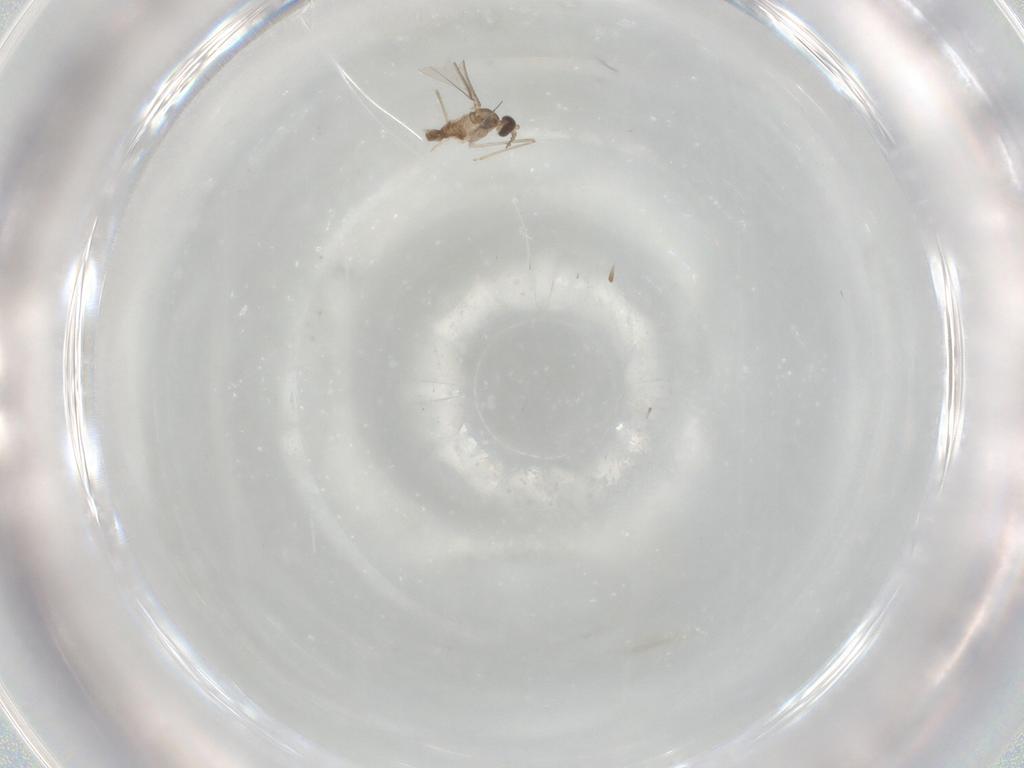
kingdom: Animalia
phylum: Arthropoda
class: Insecta
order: Diptera
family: Cecidomyiidae
